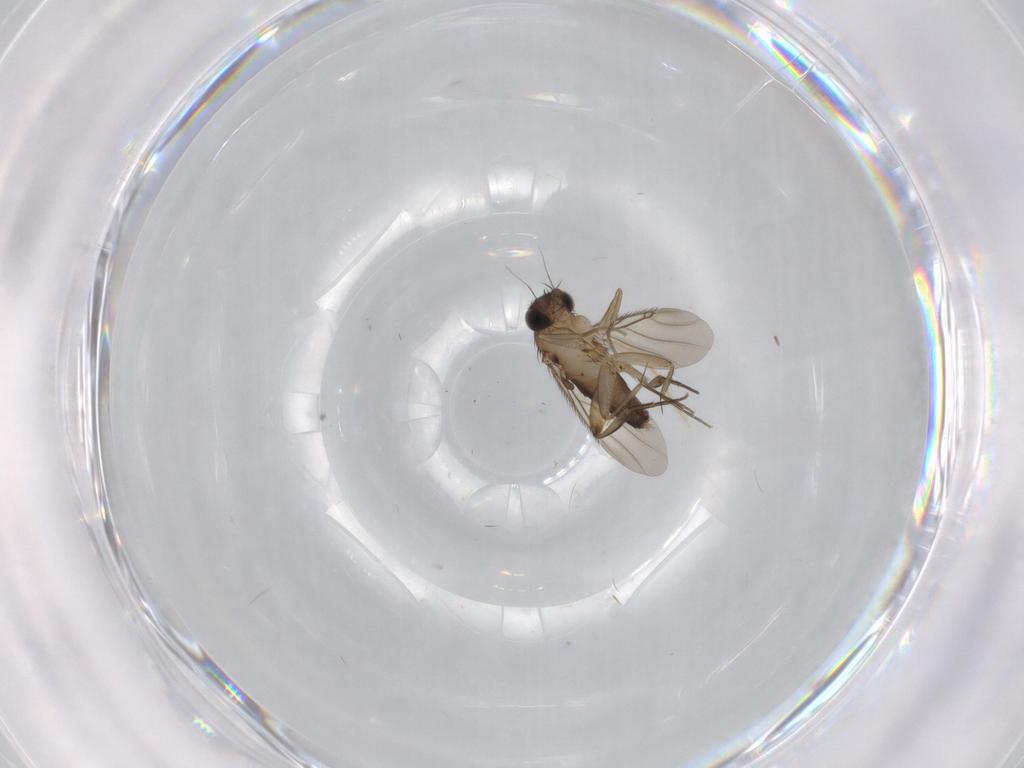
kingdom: Animalia
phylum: Arthropoda
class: Insecta
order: Diptera
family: Phoridae
